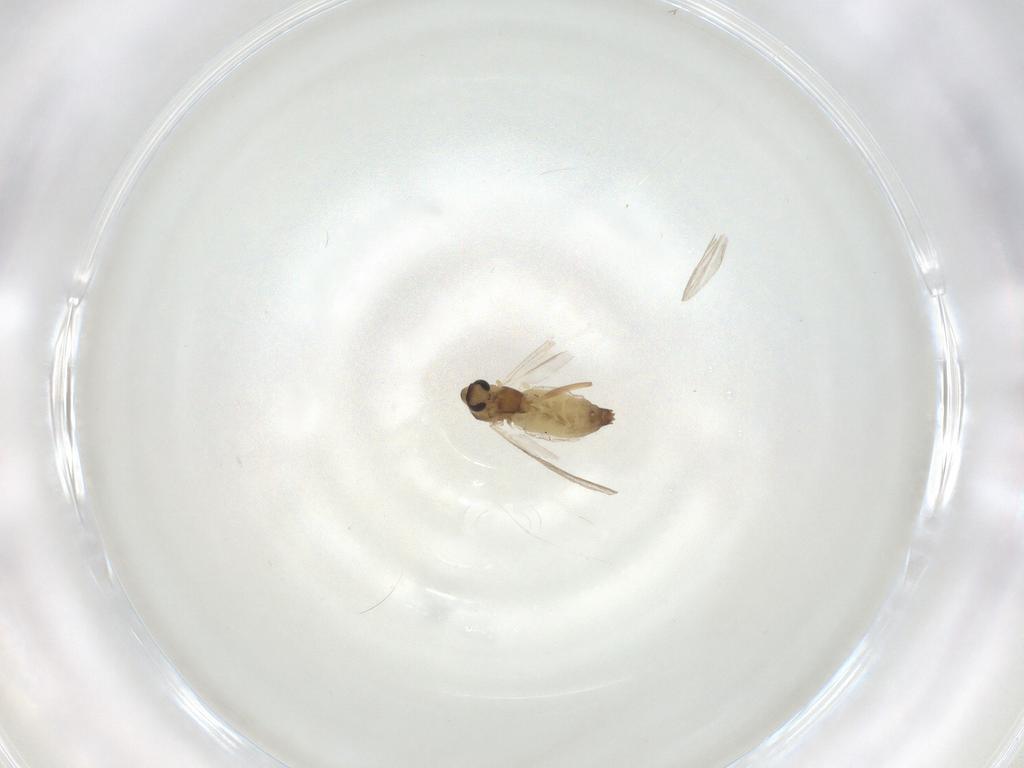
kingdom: Animalia
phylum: Arthropoda
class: Insecta
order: Diptera
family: Chironomidae
